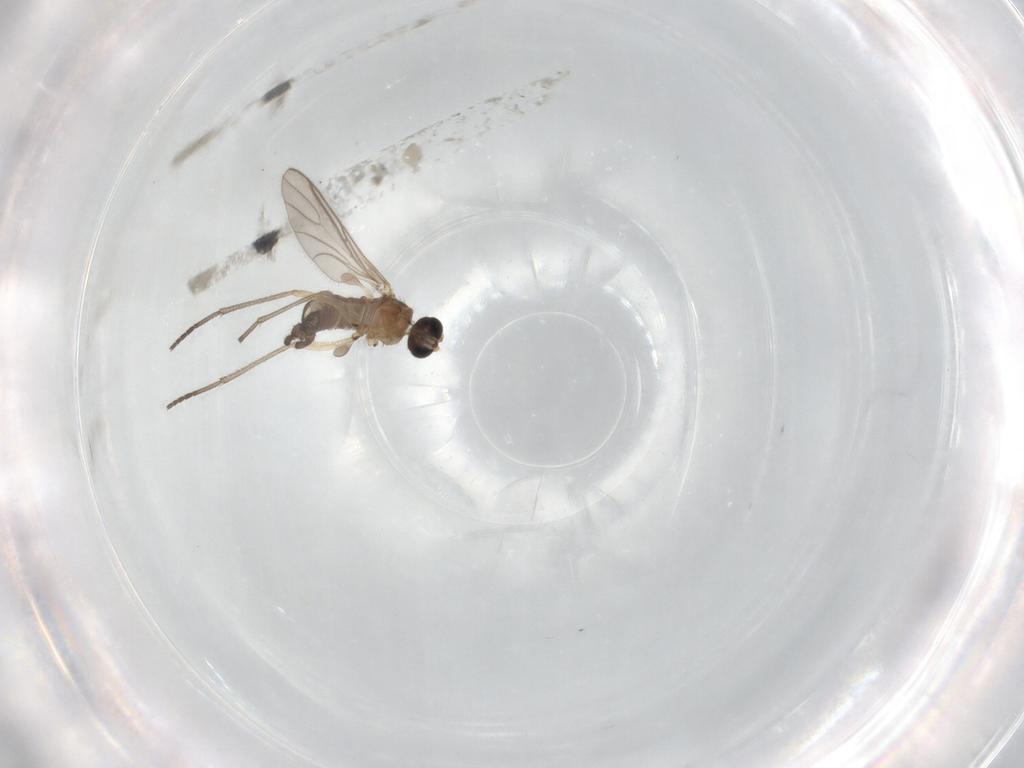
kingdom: Animalia
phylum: Arthropoda
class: Insecta
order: Diptera
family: Sciaridae
